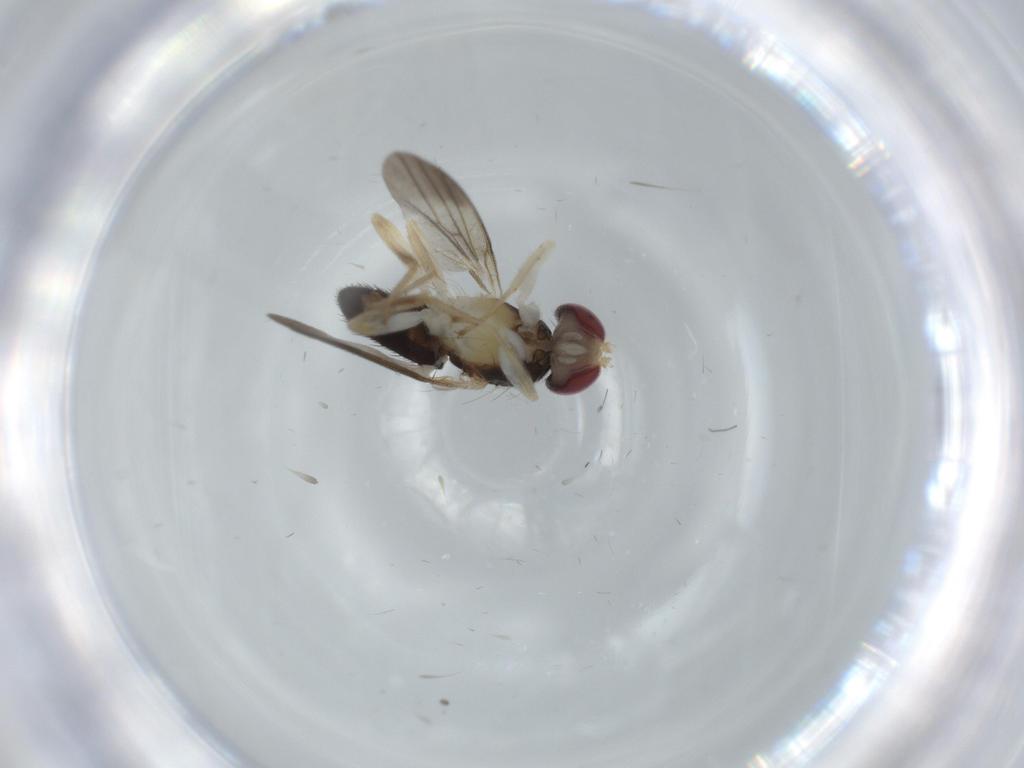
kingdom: Animalia
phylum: Arthropoda
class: Insecta
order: Diptera
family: Clusiidae
